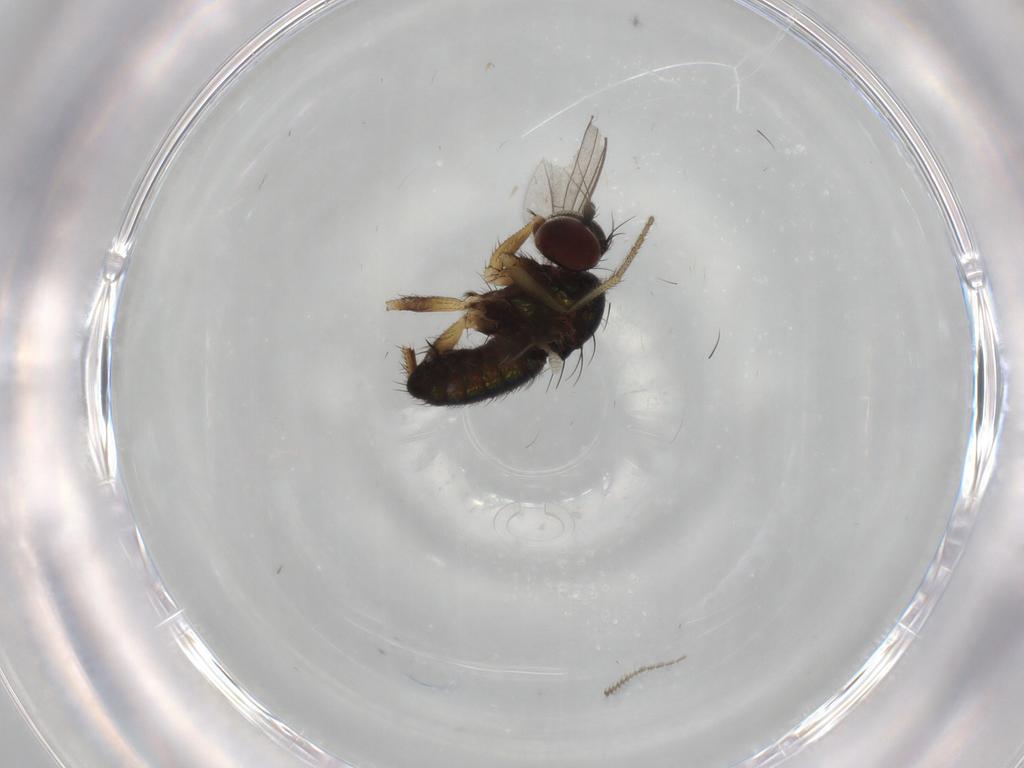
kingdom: Animalia
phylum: Arthropoda
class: Insecta
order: Diptera
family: Dolichopodidae
